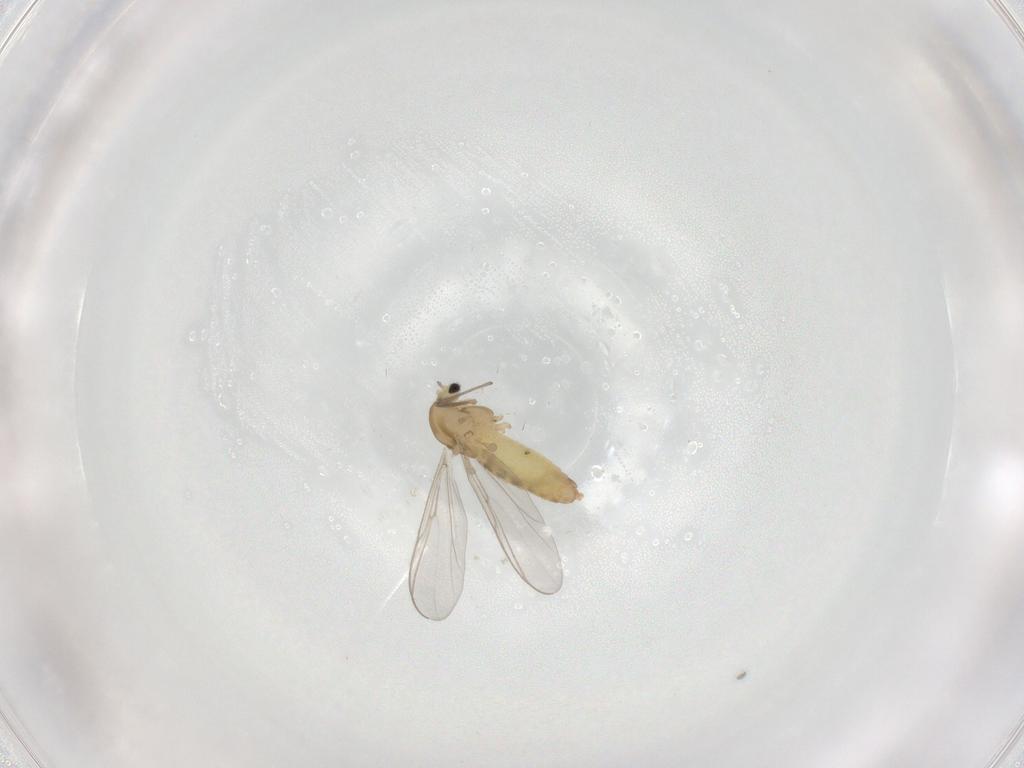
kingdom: Animalia
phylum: Arthropoda
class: Insecta
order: Diptera
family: Chironomidae
